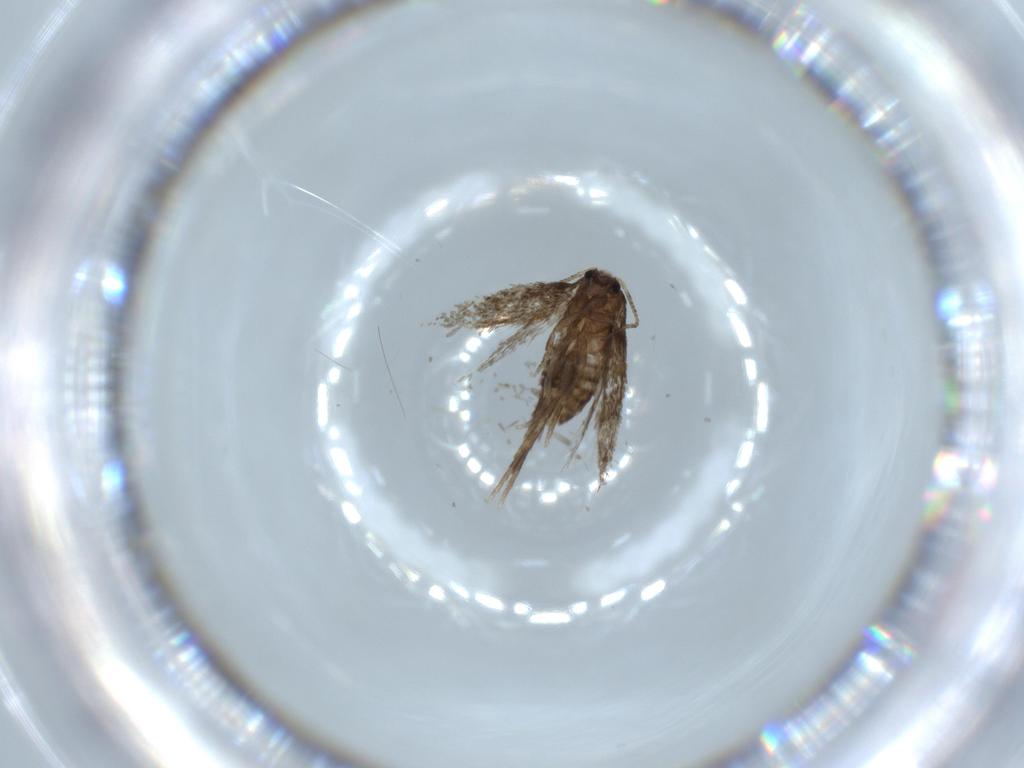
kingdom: Animalia
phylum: Arthropoda
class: Insecta
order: Lepidoptera
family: Nepticulidae
